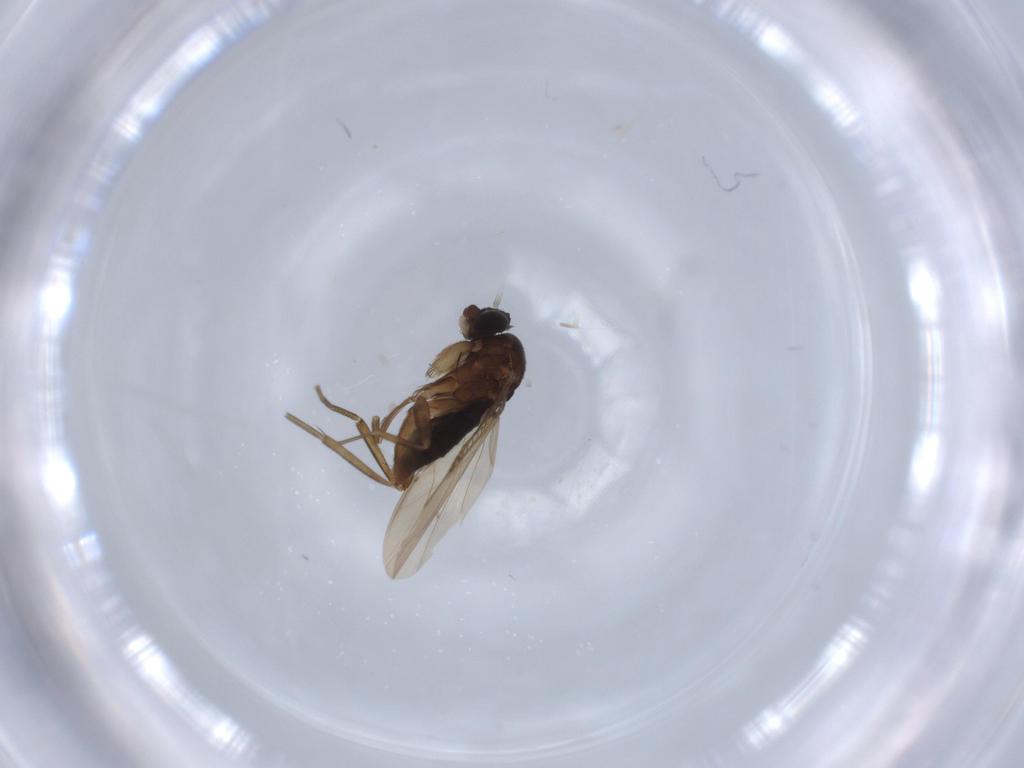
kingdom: Animalia
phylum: Arthropoda
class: Insecta
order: Diptera
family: Phoridae
